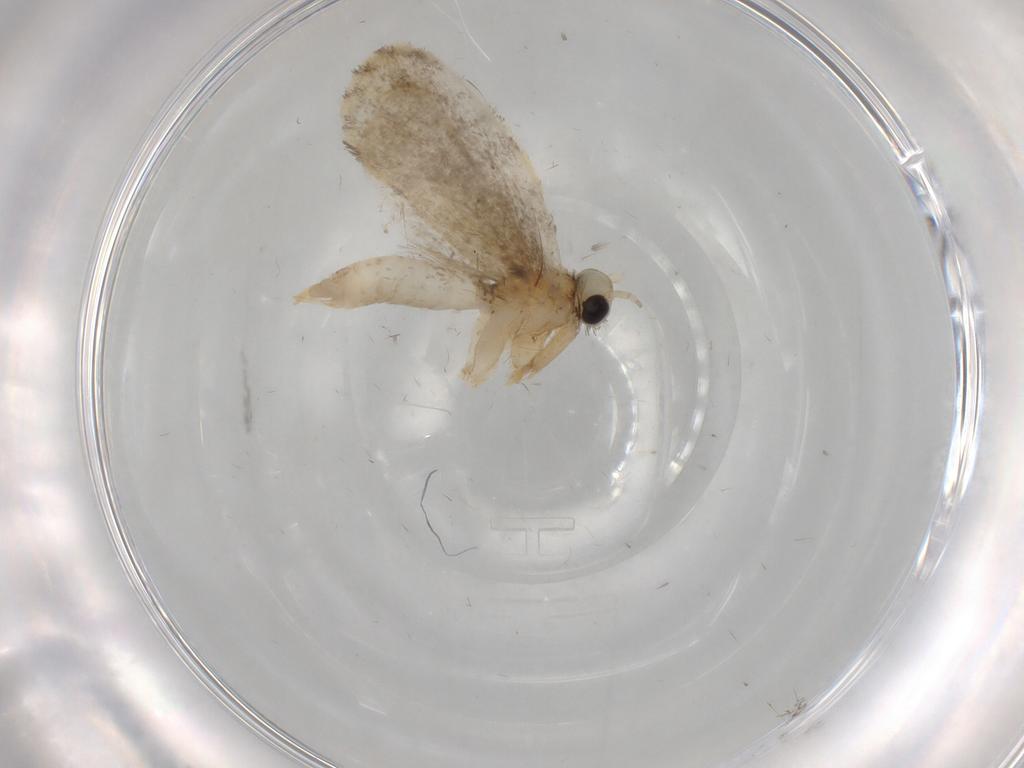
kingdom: Animalia
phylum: Arthropoda
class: Insecta
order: Lepidoptera
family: Psychidae
